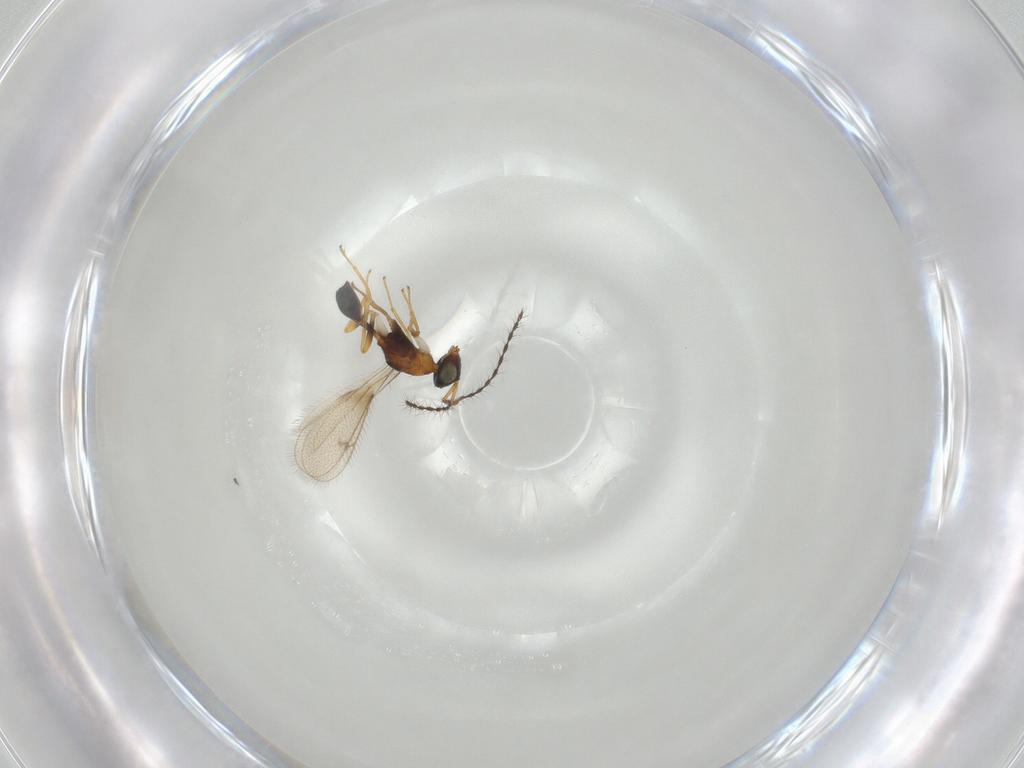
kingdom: Animalia
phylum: Arthropoda
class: Insecta
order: Hymenoptera
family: Diparidae
